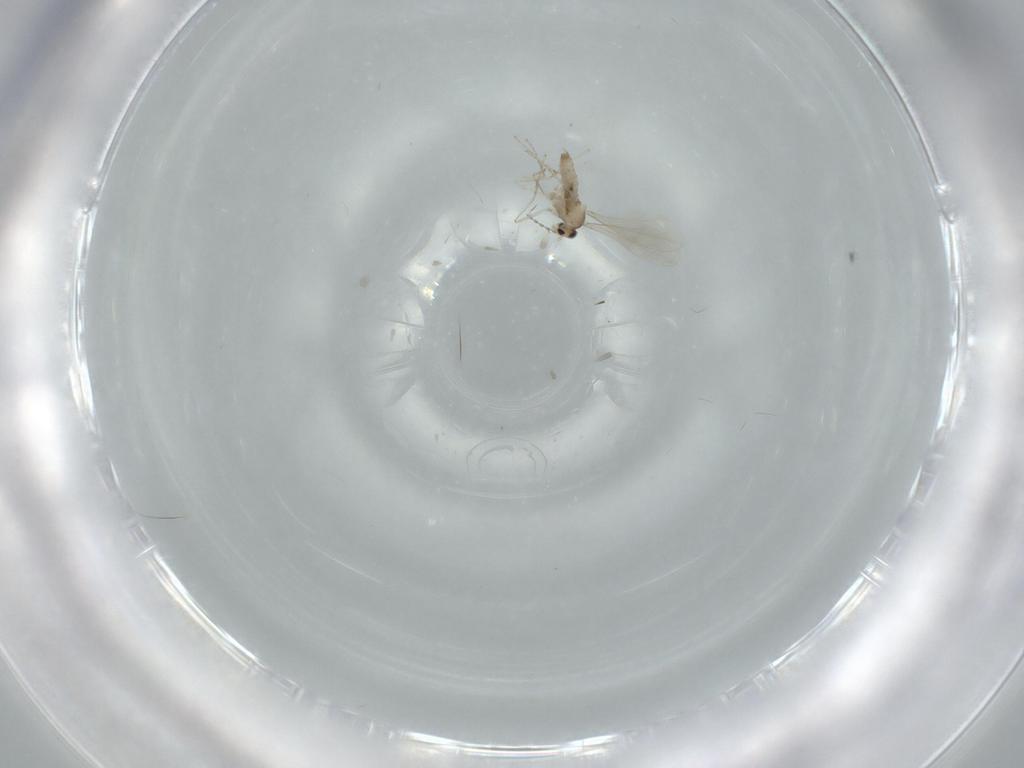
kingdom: Animalia
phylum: Arthropoda
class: Insecta
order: Diptera
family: Cecidomyiidae
